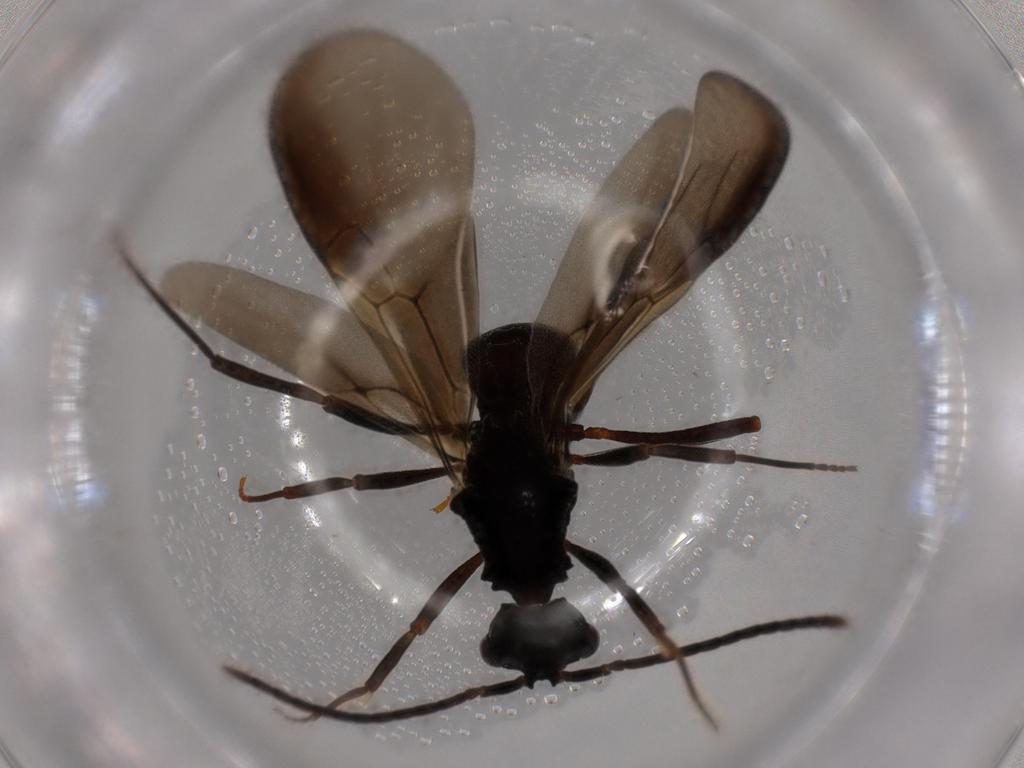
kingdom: Animalia
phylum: Arthropoda
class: Insecta
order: Hymenoptera
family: Formicidae
